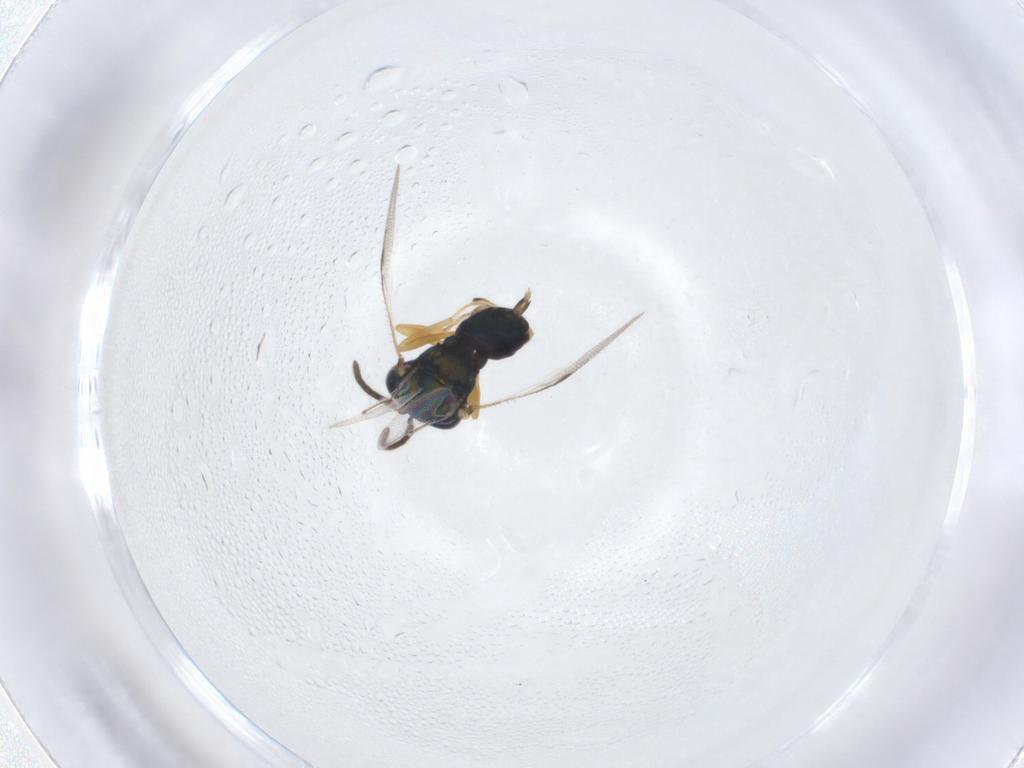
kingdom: Animalia
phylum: Arthropoda
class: Insecta
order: Hymenoptera
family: Pteromalidae
